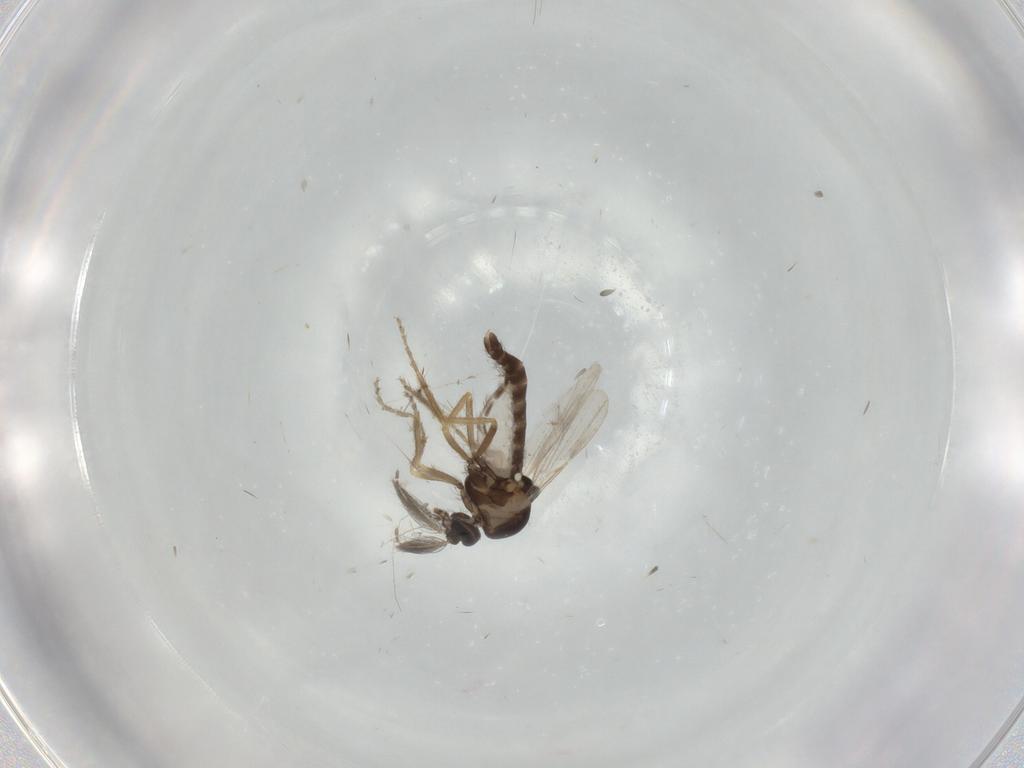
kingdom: Animalia
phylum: Arthropoda
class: Insecta
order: Diptera
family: Ceratopogonidae
